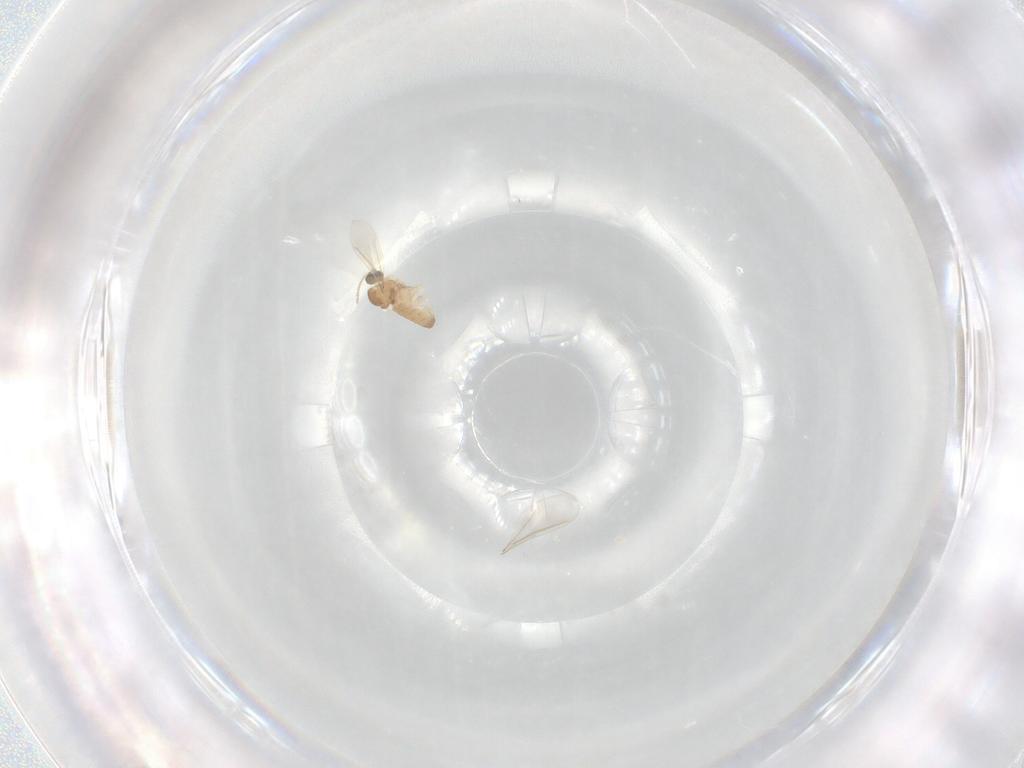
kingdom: Animalia
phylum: Arthropoda
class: Insecta
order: Diptera
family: Cecidomyiidae
